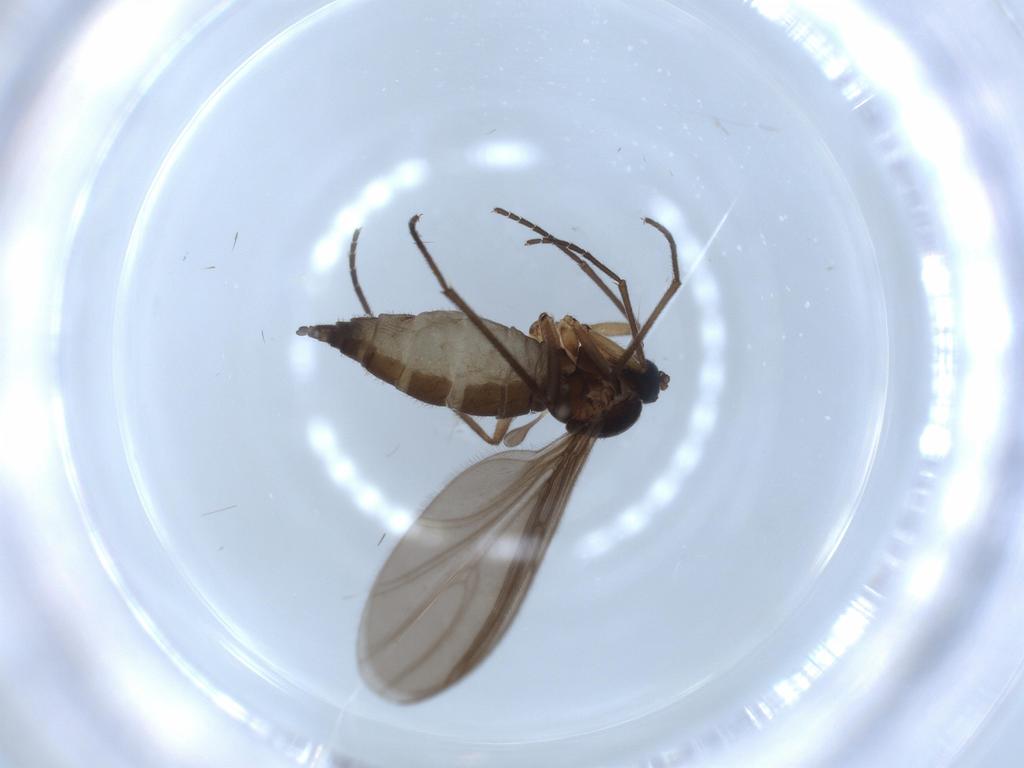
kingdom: Animalia
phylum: Arthropoda
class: Insecta
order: Diptera
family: Sciaridae
